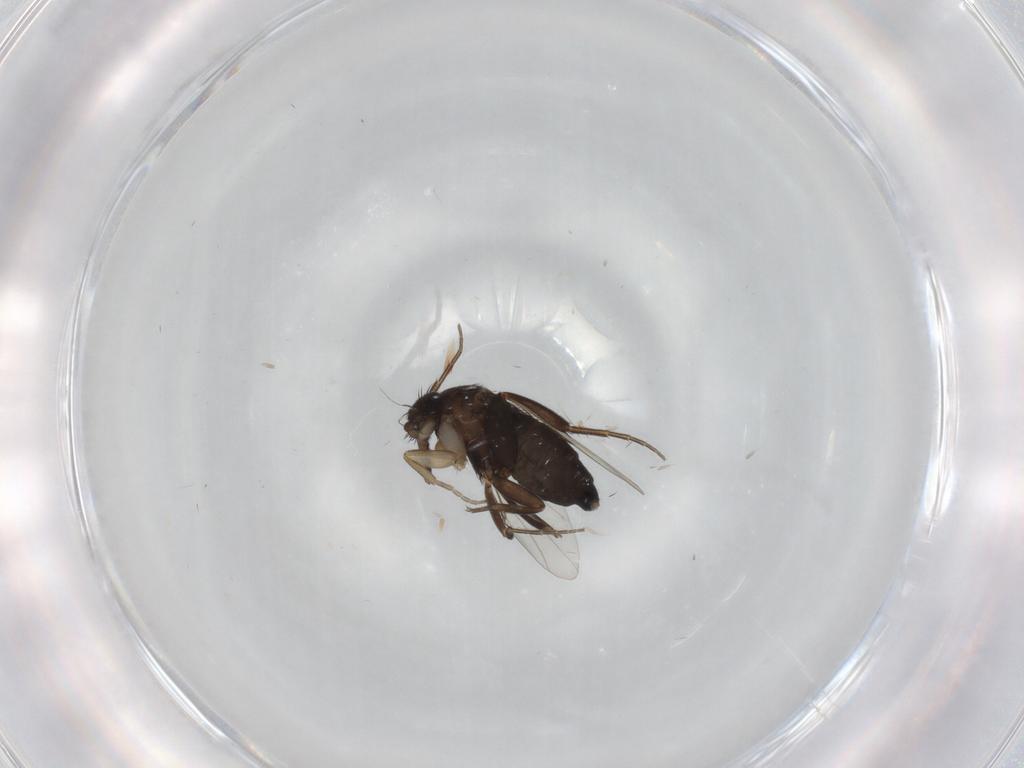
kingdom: Animalia
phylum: Arthropoda
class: Insecta
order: Diptera
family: Phoridae
